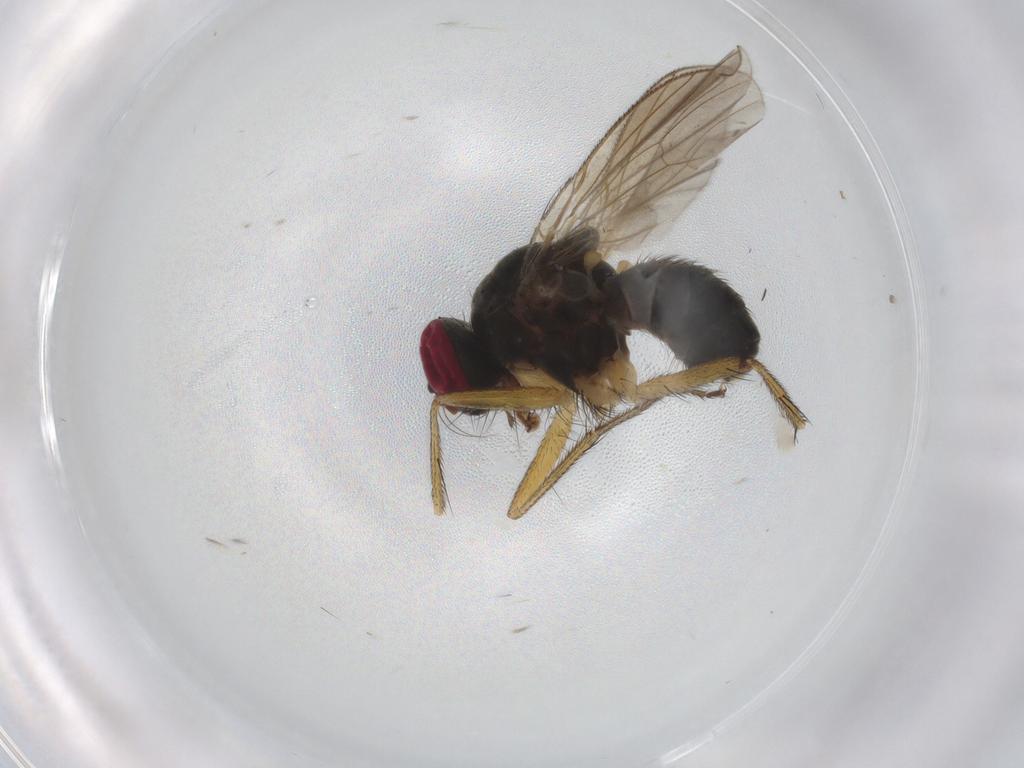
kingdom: Animalia
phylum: Arthropoda
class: Insecta
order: Diptera
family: Muscidae
